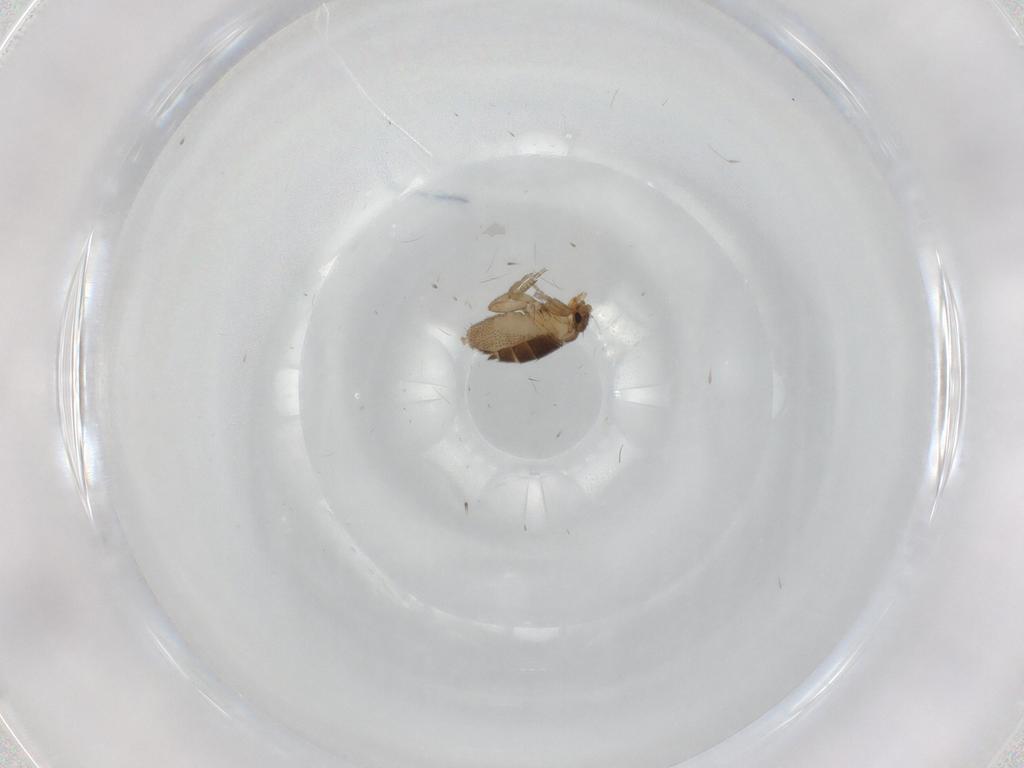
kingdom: Animalia
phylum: Arthropoda
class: Insecta
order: Diptera
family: Phoridae
